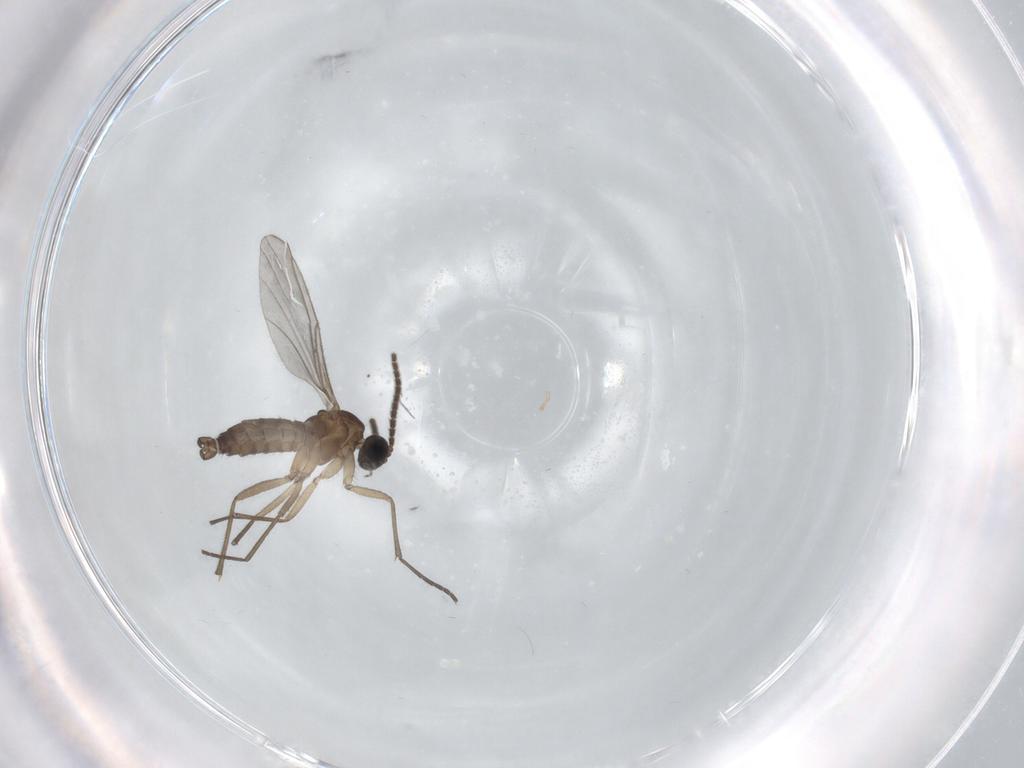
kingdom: Animalia
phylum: Arthropoda
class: Insecta
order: Diptera
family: Sciaridae
